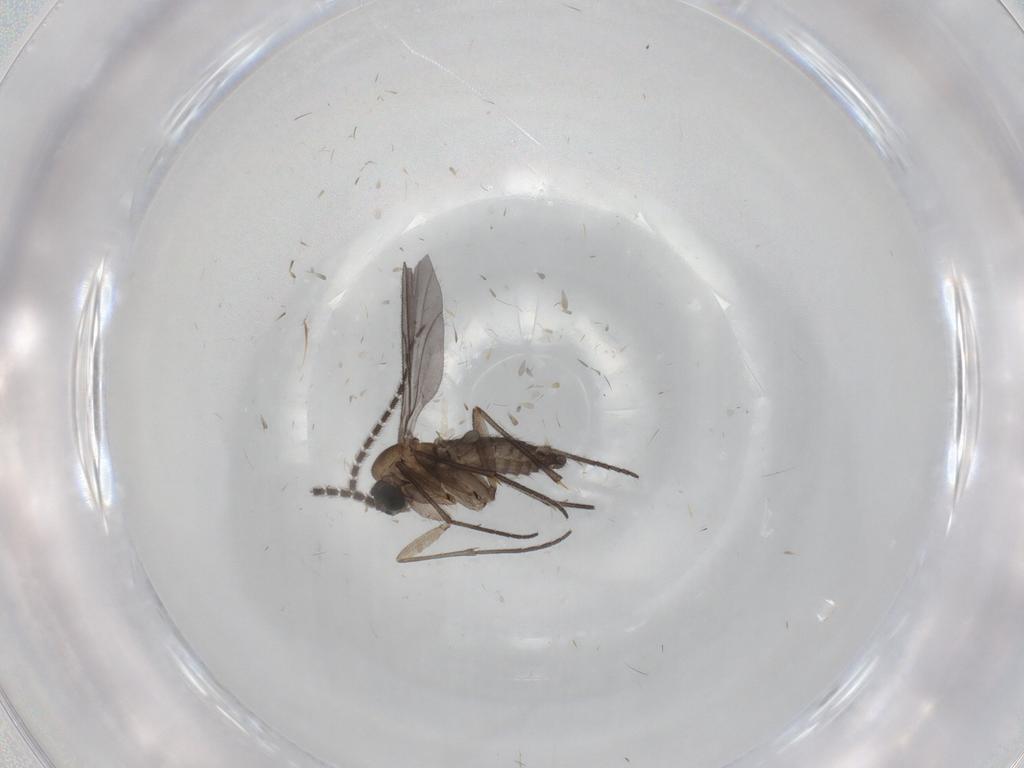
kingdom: Animalia
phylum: Arthropoda
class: Insecta
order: Diptera
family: Sciaridae
